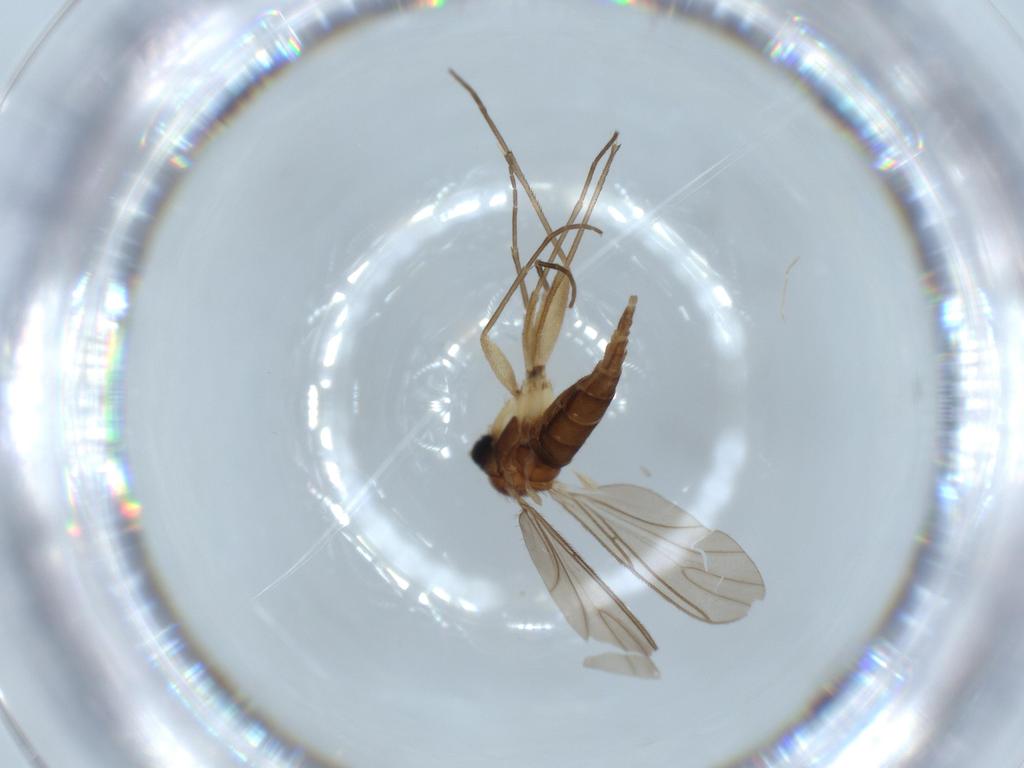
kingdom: Animalia
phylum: Arthropoda
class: Insecta
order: Diptera
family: Sciaridae
